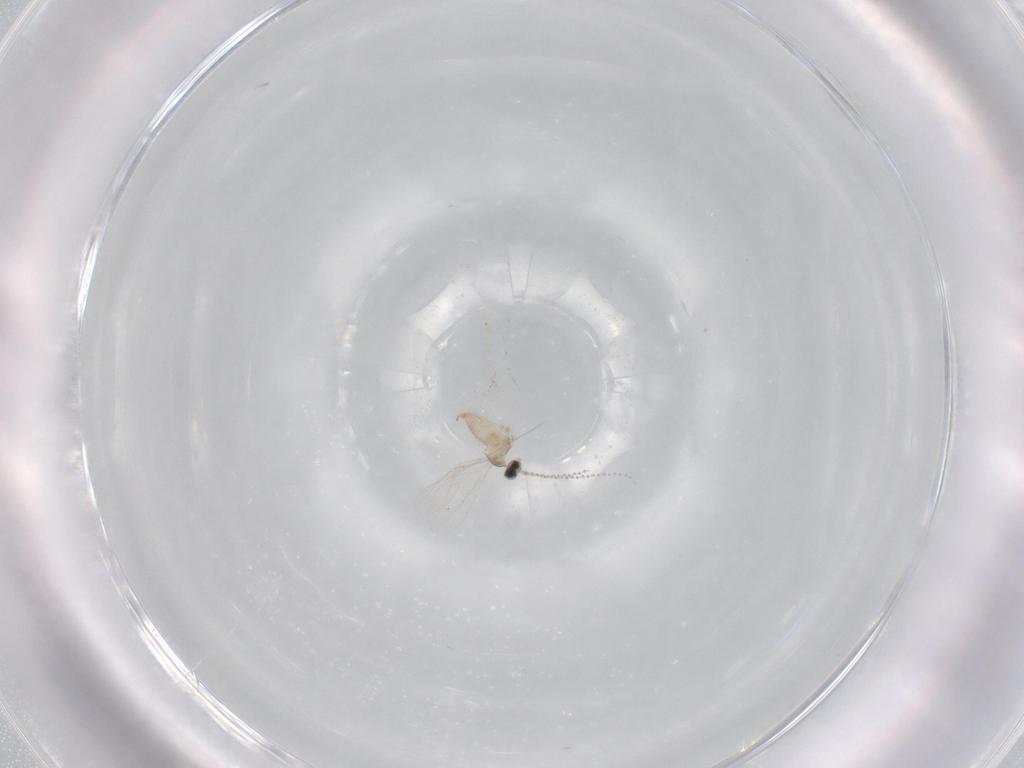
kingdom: Animalia
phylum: Arthropoda
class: Insecta
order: Diptera
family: Cecidomyiidae
